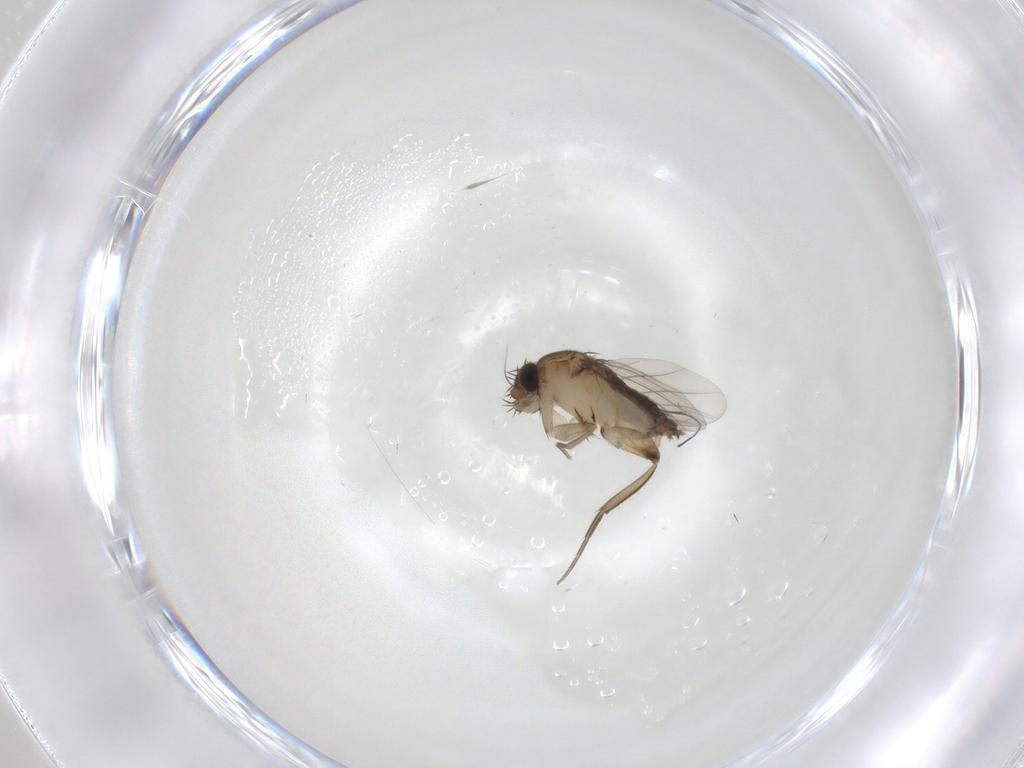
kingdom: Animalia
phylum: Arthropoda
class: Insecta
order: Diptera
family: Phoridae
